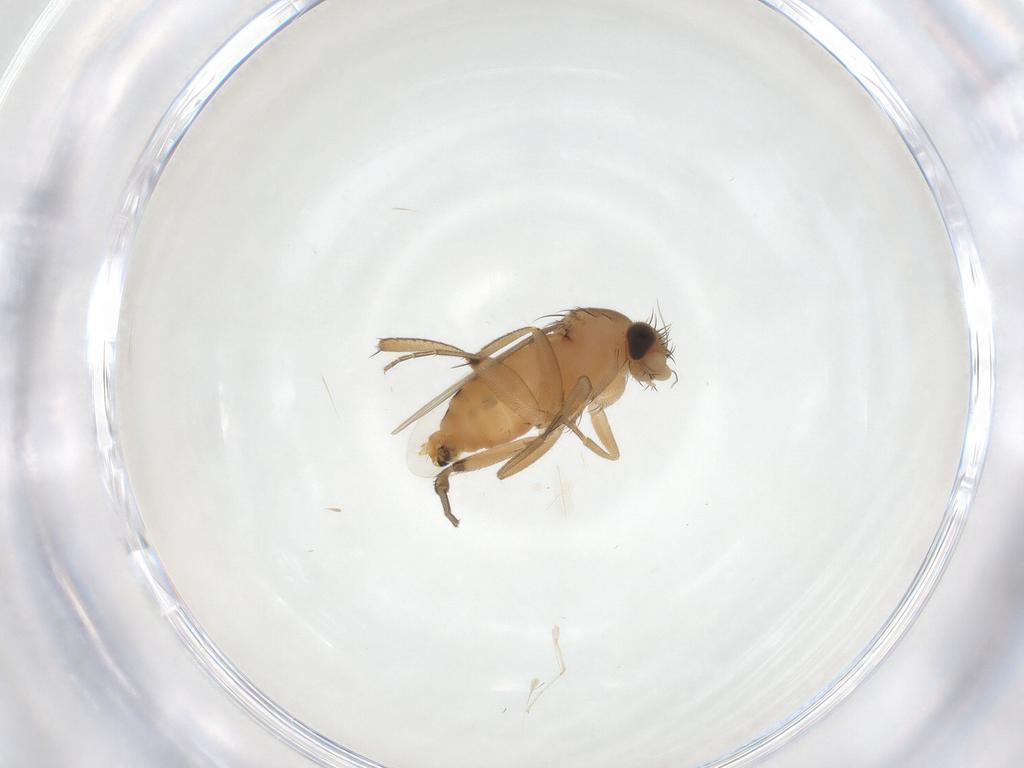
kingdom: Animalia
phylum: Arthropoda
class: Insecta
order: Diptera
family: Phoridae
